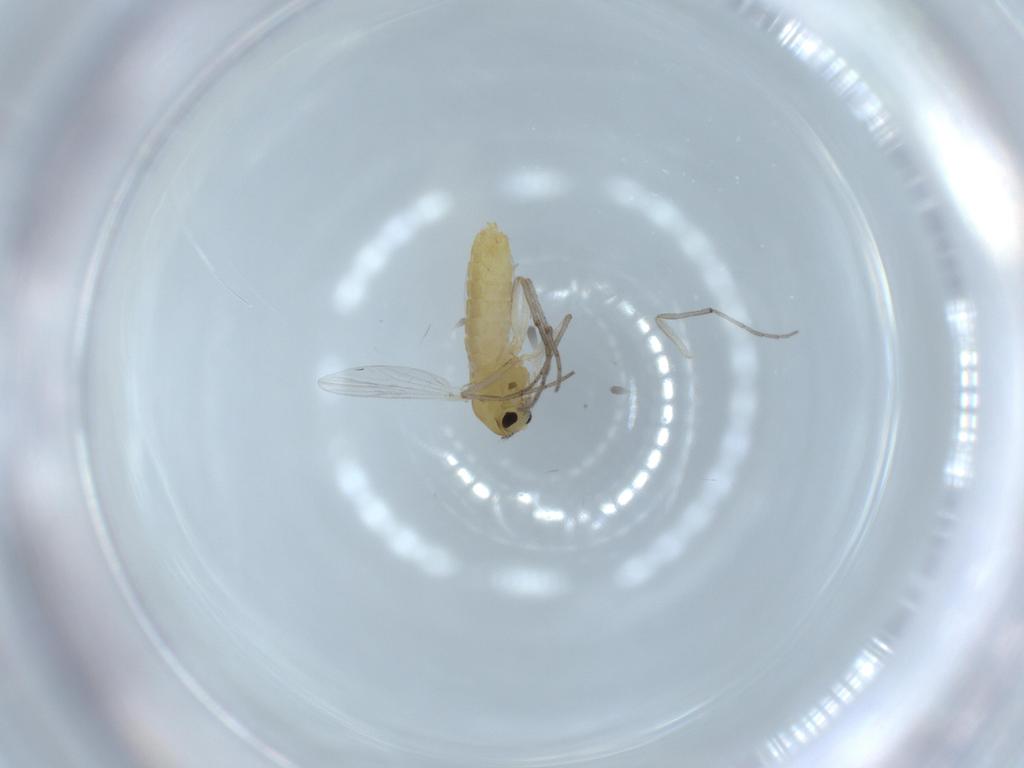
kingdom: Animalia
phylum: Arthropoda
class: Insecta
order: Diptera
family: Chironomidae
